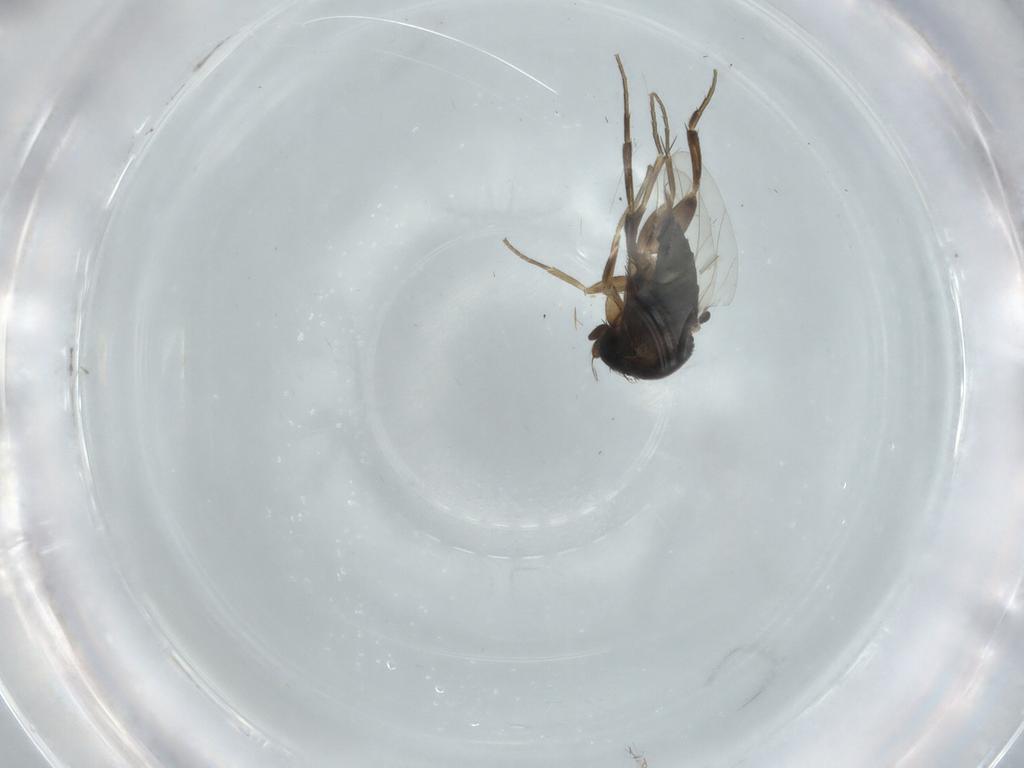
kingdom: Animalia
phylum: Arthropoda
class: Insecta
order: Diptera
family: Phoridae
